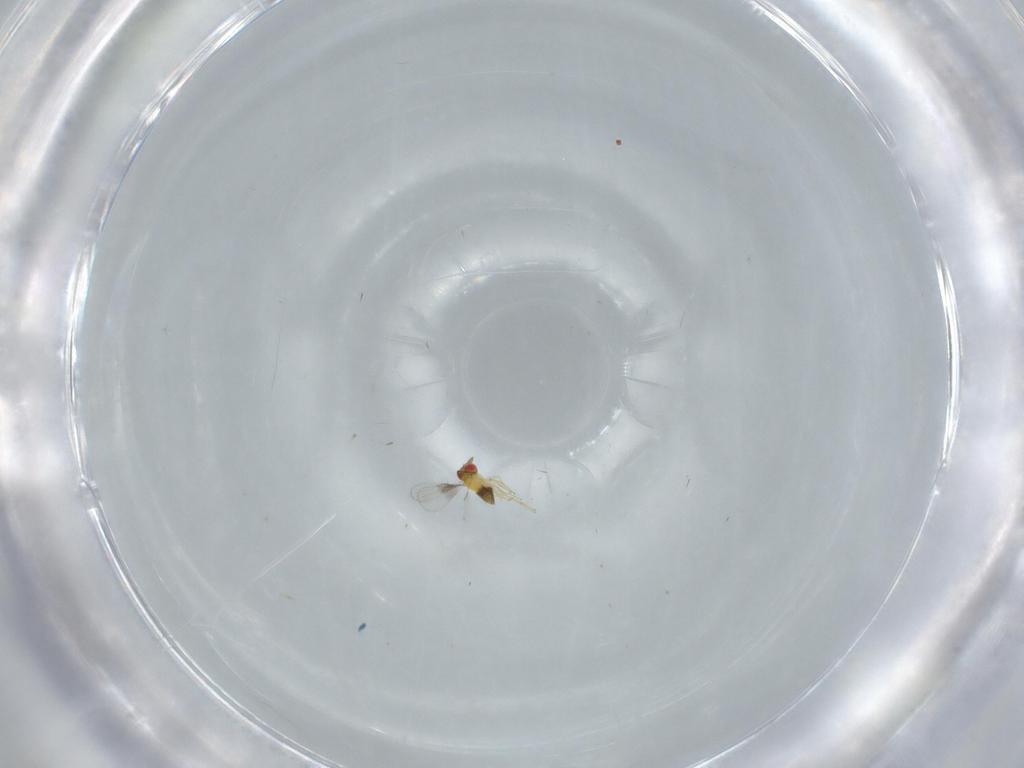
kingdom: Animalia
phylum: Arthropoda
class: Insecta
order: Hymenoptera
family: Trichogrammatidae
